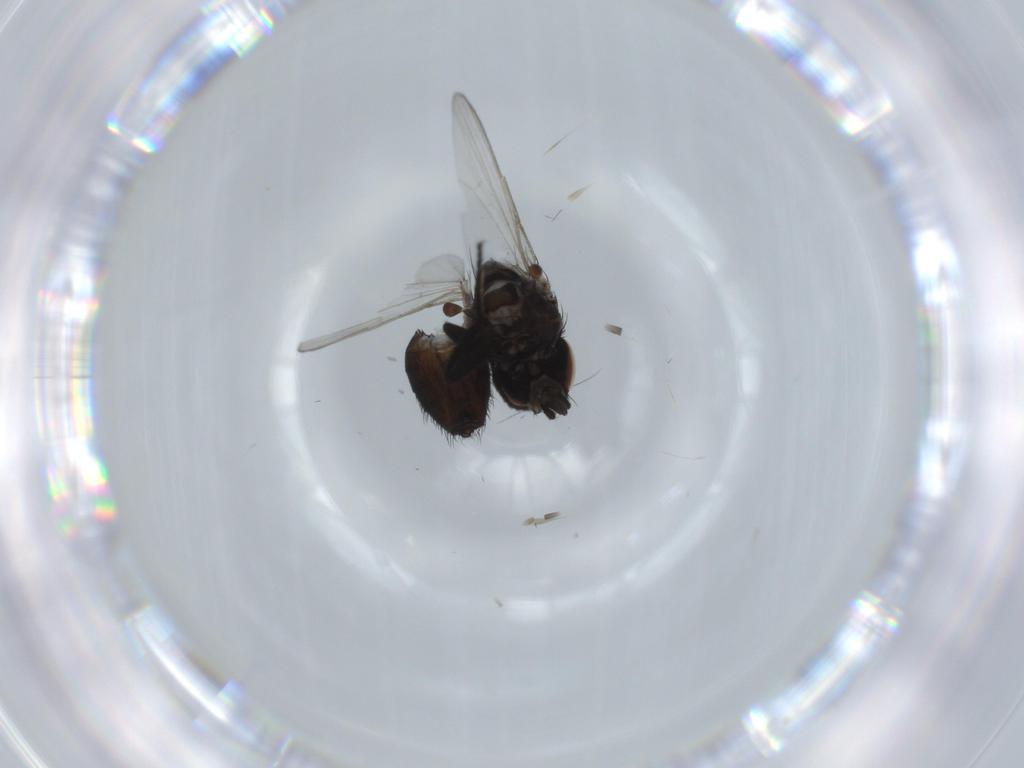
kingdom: Animalia
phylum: Arthropoda
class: Insecta
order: Diptera
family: Milichiidae
